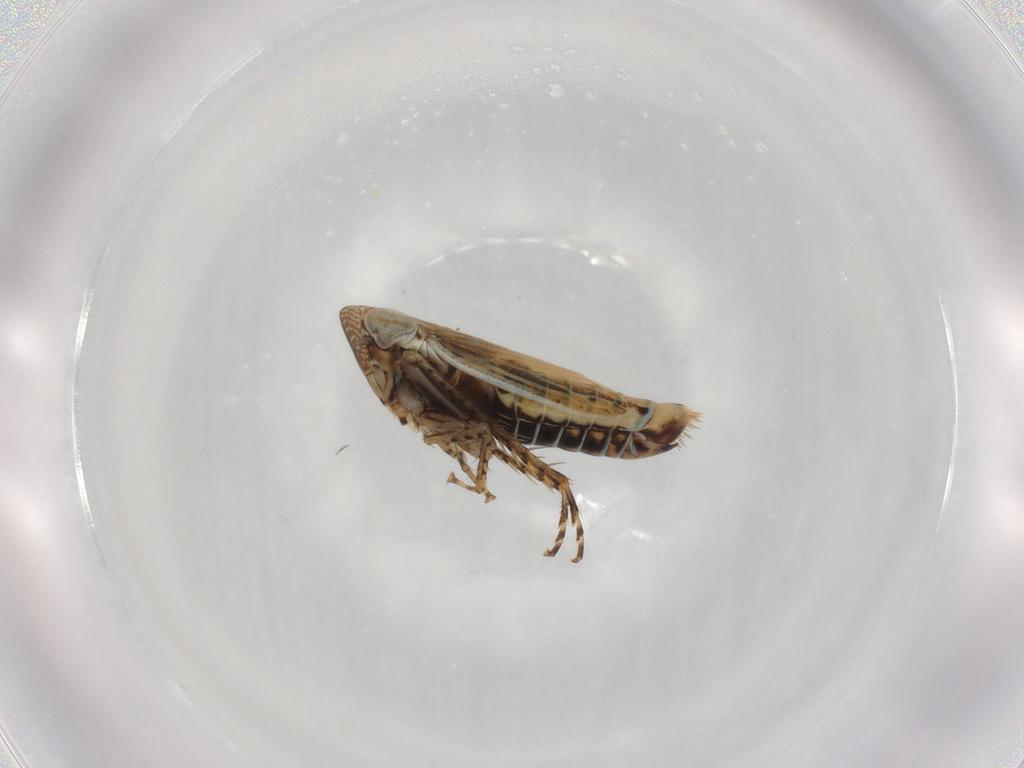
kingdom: Animalia
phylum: Arthropoda
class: Insecta
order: Hemiptera
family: Cicadellidae
